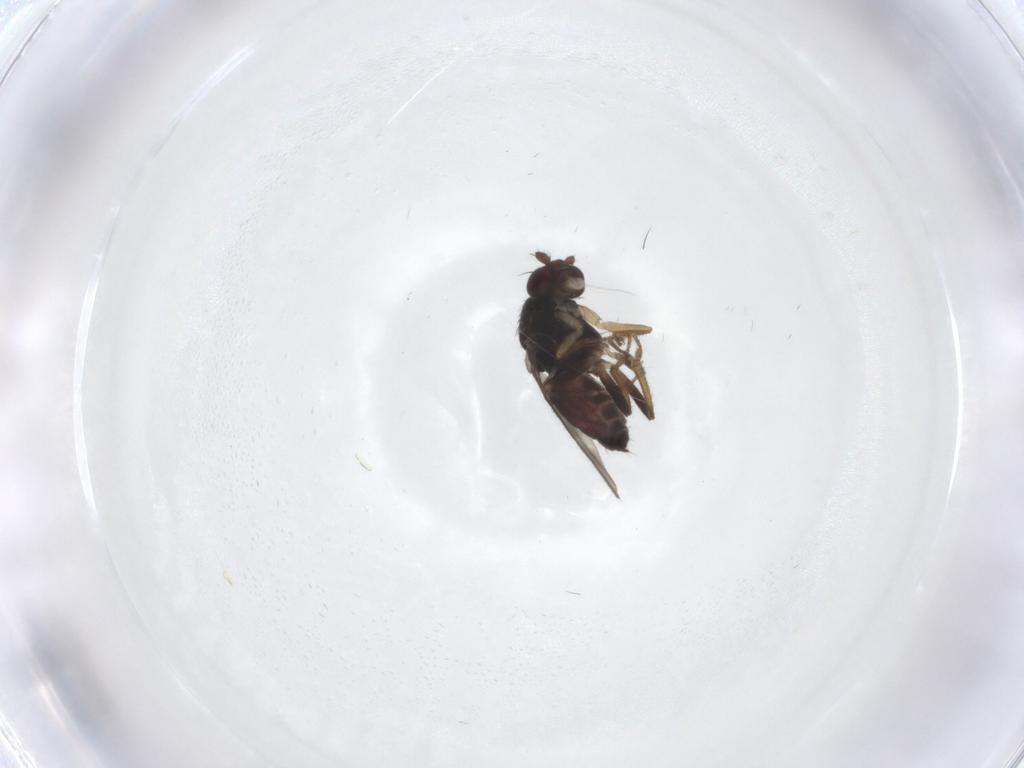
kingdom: Animalia
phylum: Arthropoda
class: Insecta
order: Diptera
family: Sphaeroceridae
